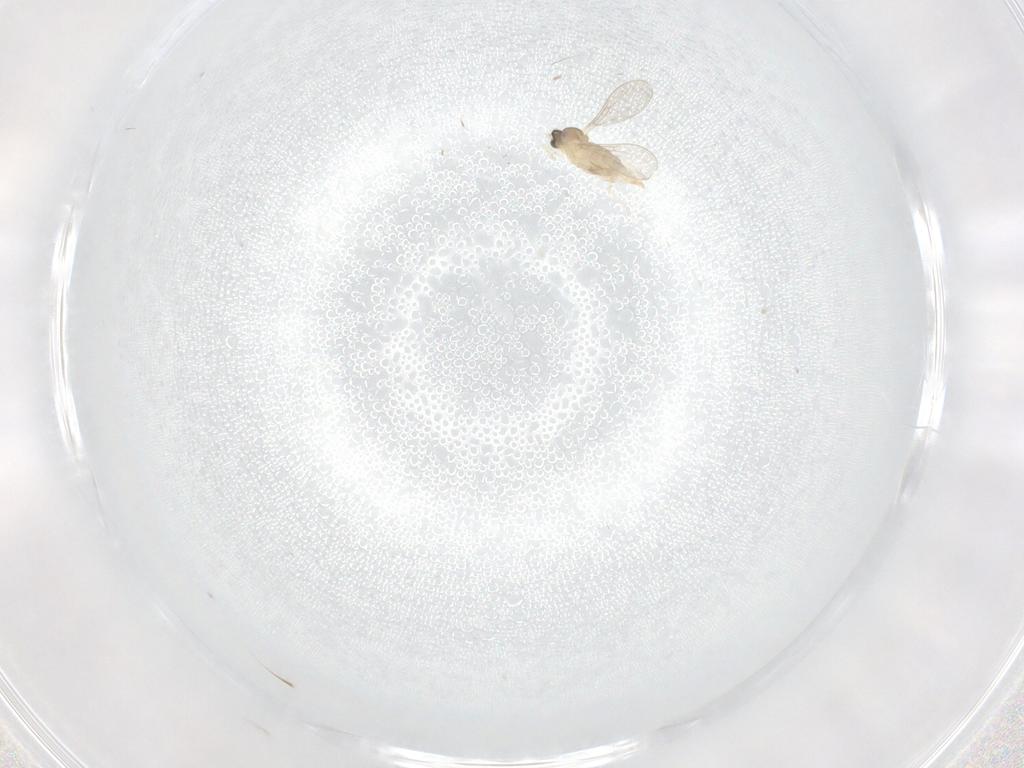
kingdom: Animalia
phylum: Arthropoda
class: Insecta
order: Diptera
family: Cecidomyiidae
